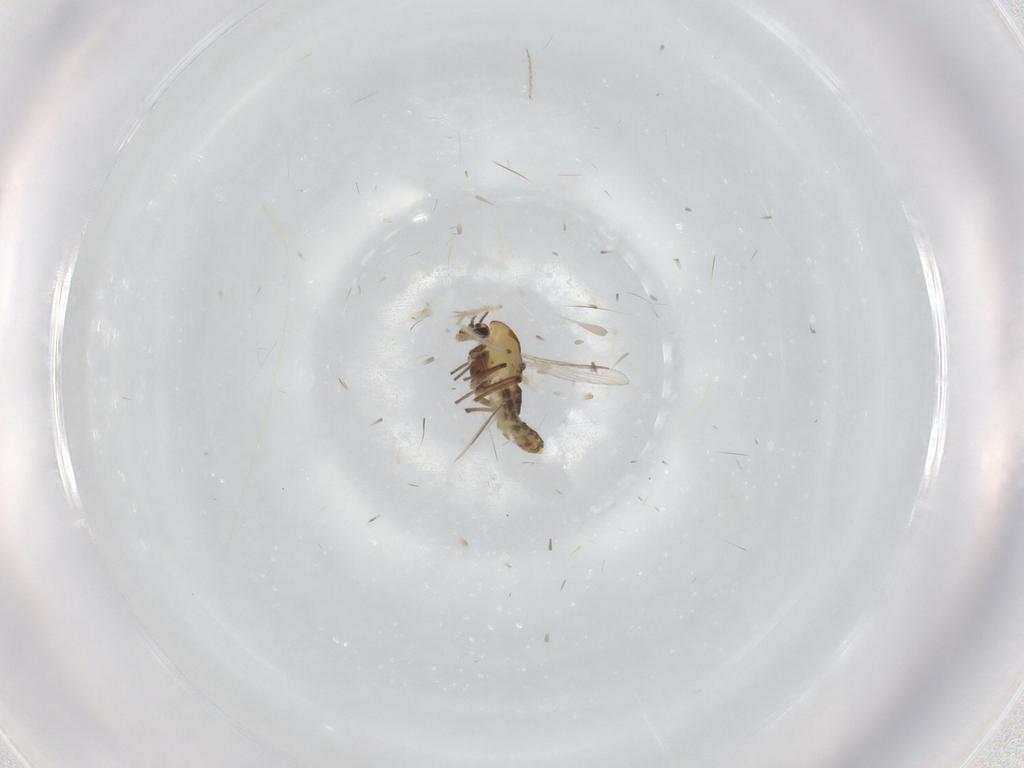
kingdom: Animalia
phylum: Arthropoda
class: Insecta
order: Diptera
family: Chironomidae
